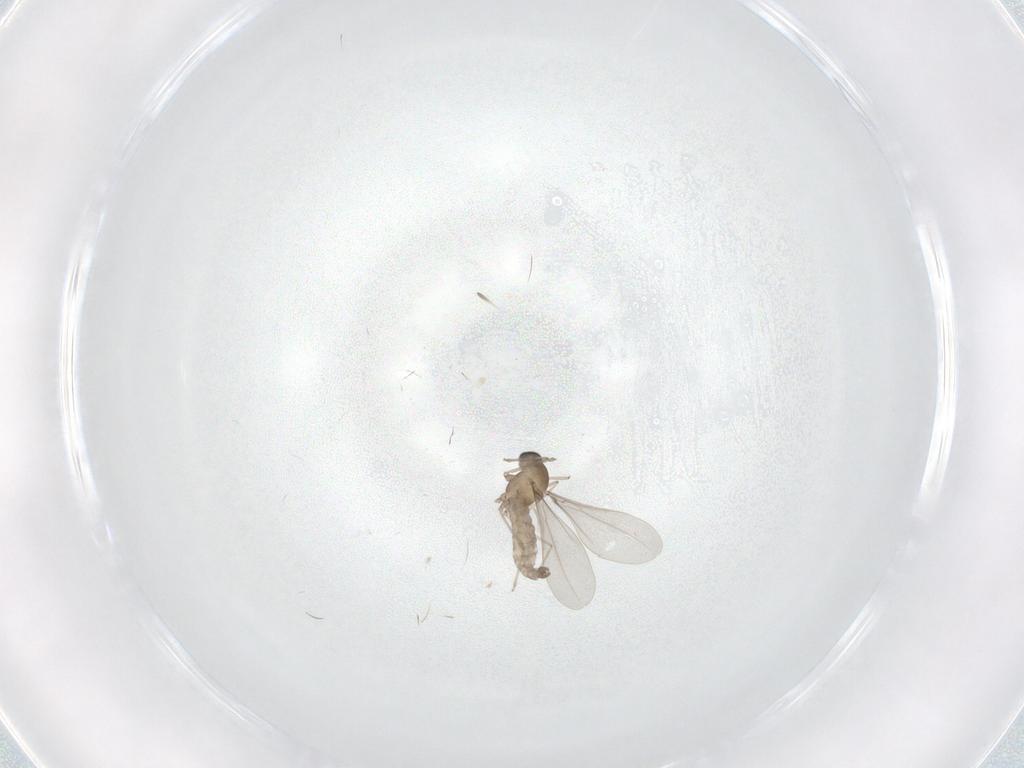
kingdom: Animalia
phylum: Arthropoda
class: Insecta
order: Diptera
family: Cecidomyiidae
